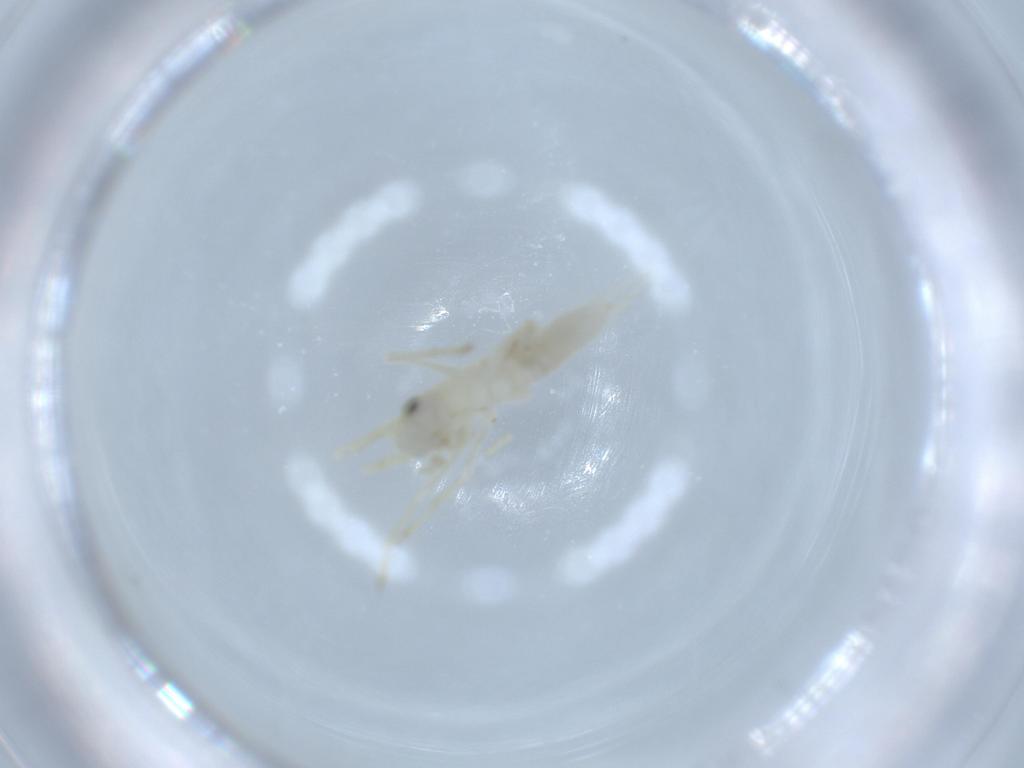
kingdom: Animalia
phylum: Arthropoda
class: Insecta
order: Orthoptera
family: Trigonidiidae
